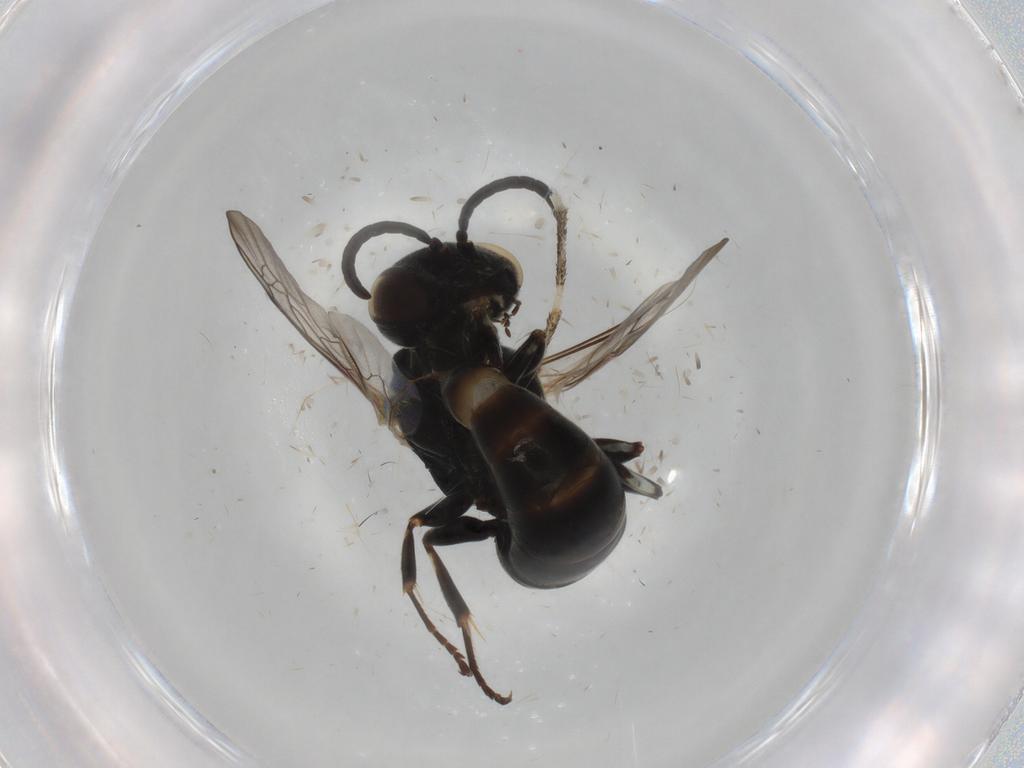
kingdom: Animalia
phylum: Arthropoda
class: Insecta
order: Hymenoptera
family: Crabronidae
